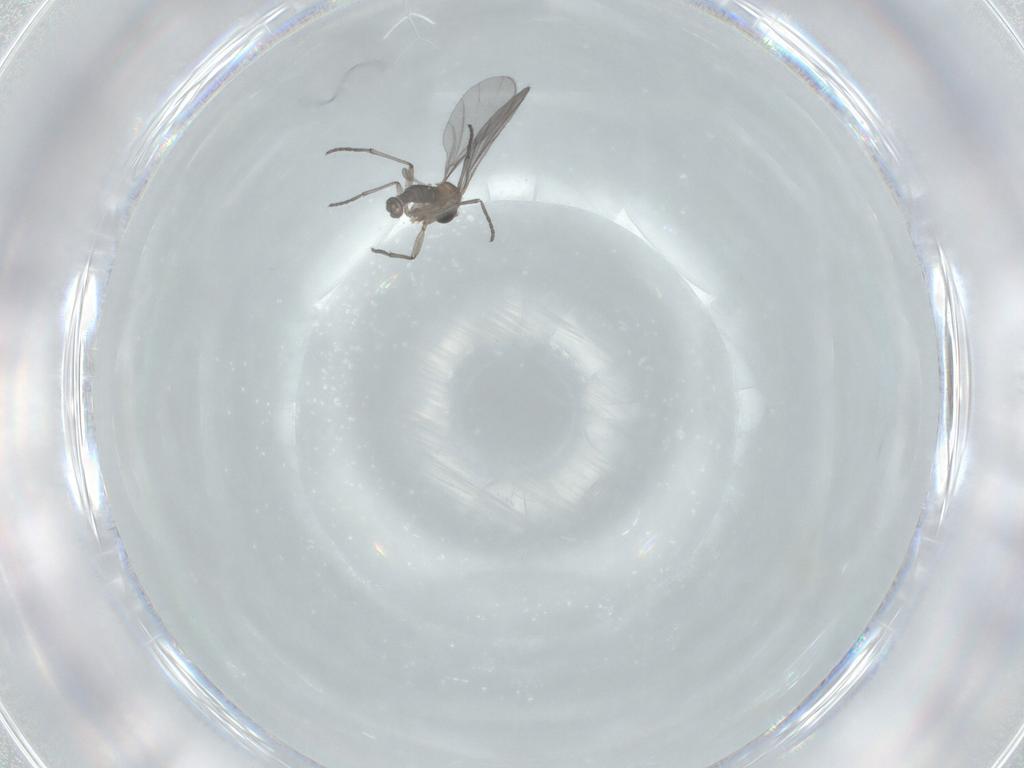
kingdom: Animalia
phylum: Arthropoda
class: Insecta
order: Diptera
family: Sciaridae
